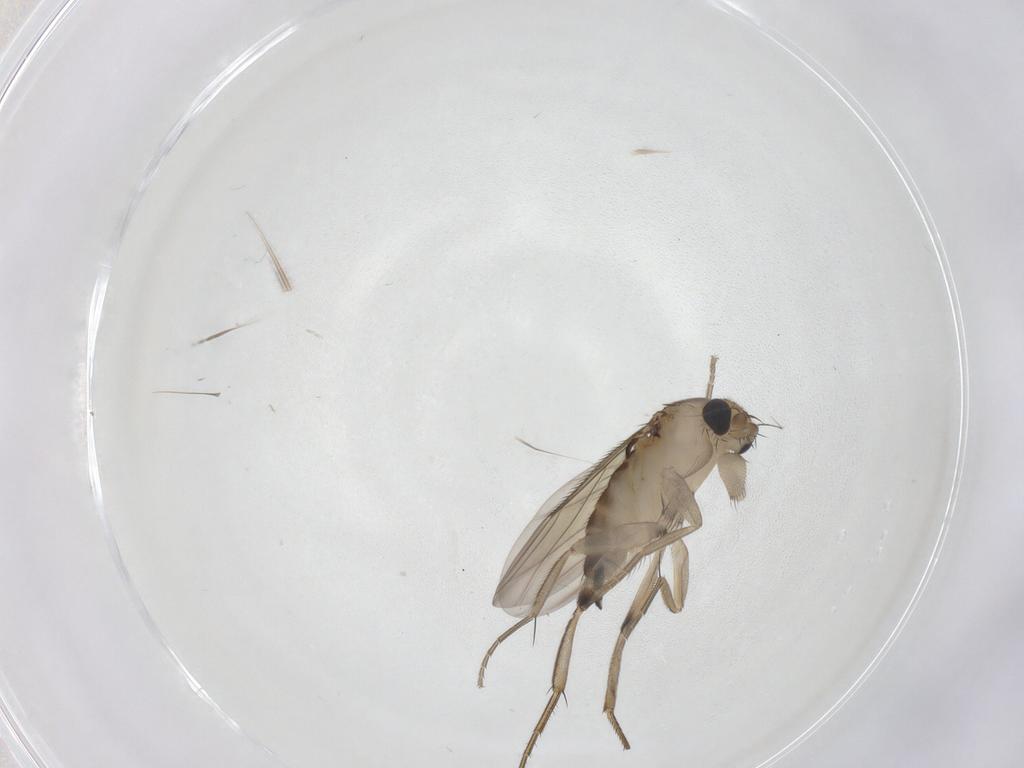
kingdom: Animalia
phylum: Arthropoda
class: Insecta
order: Diptera
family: Phoridae
